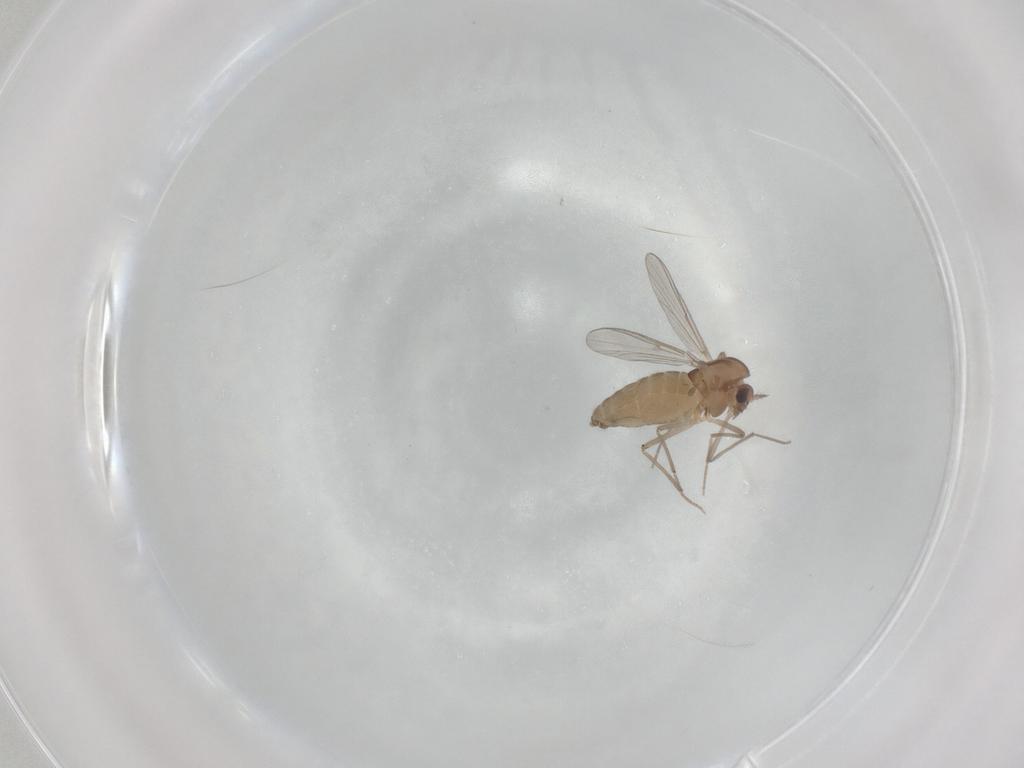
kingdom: Animalia
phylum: Arthropoda
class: Insecta
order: Diptera
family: Chironomidae
